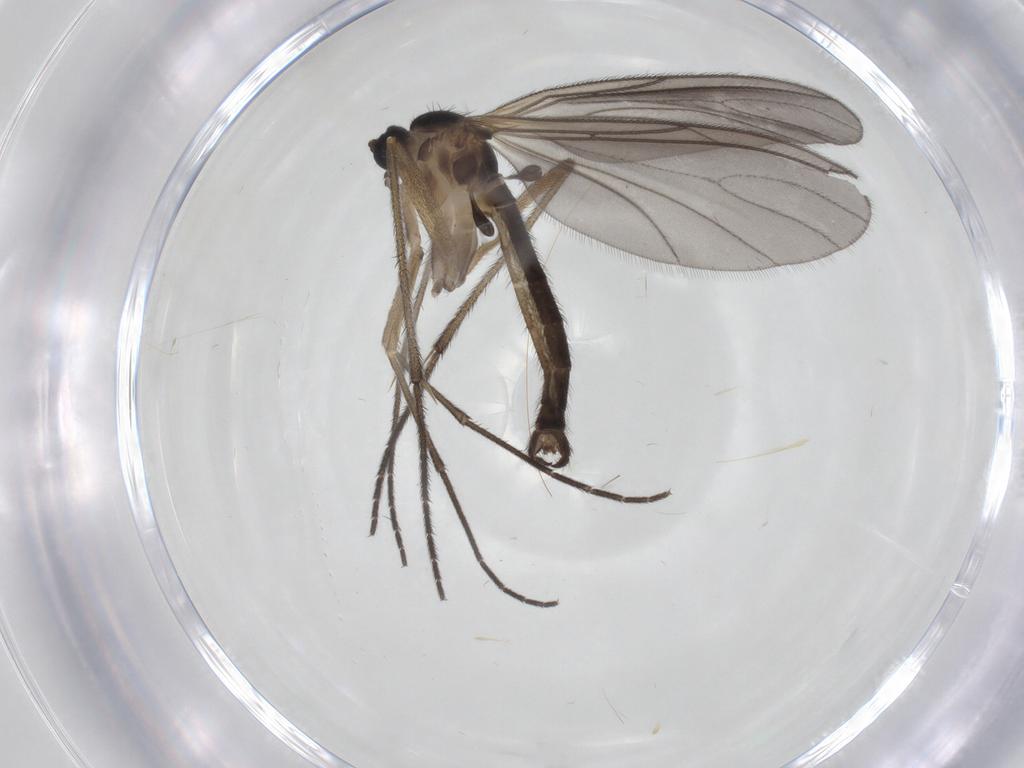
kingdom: Animalia
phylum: Arthropoda
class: Insecta
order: Diptera
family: Sciaridae
